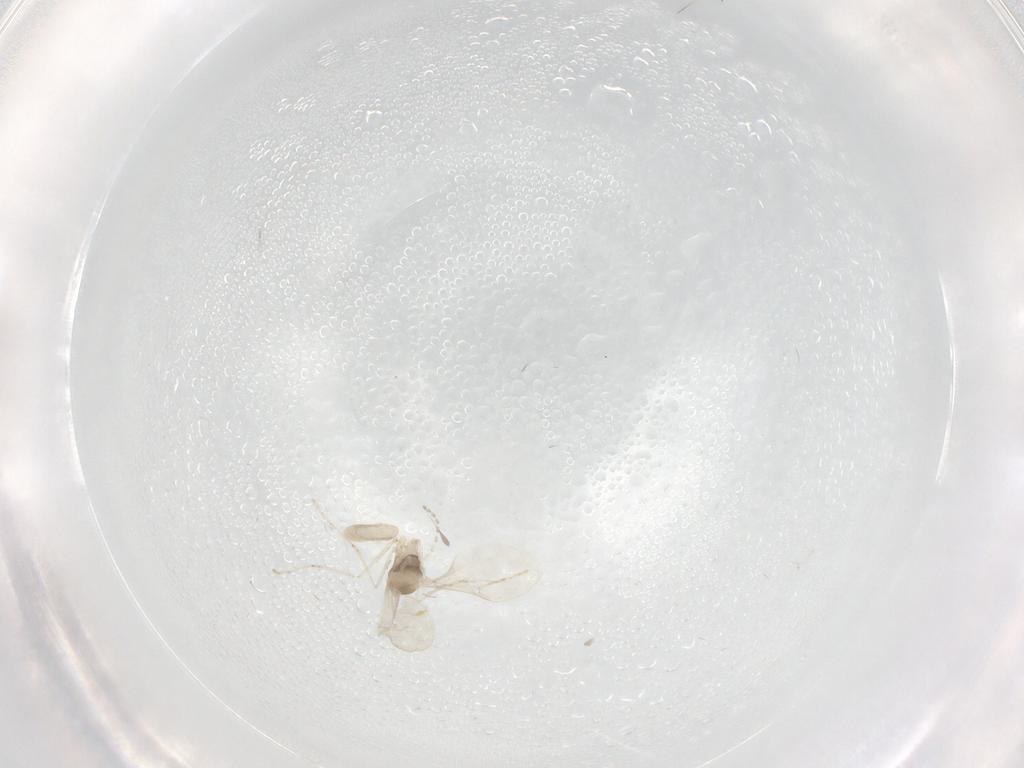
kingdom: Animalia
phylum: Arthropoda
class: Insecta
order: Diptera
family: Cecidomyiidae
